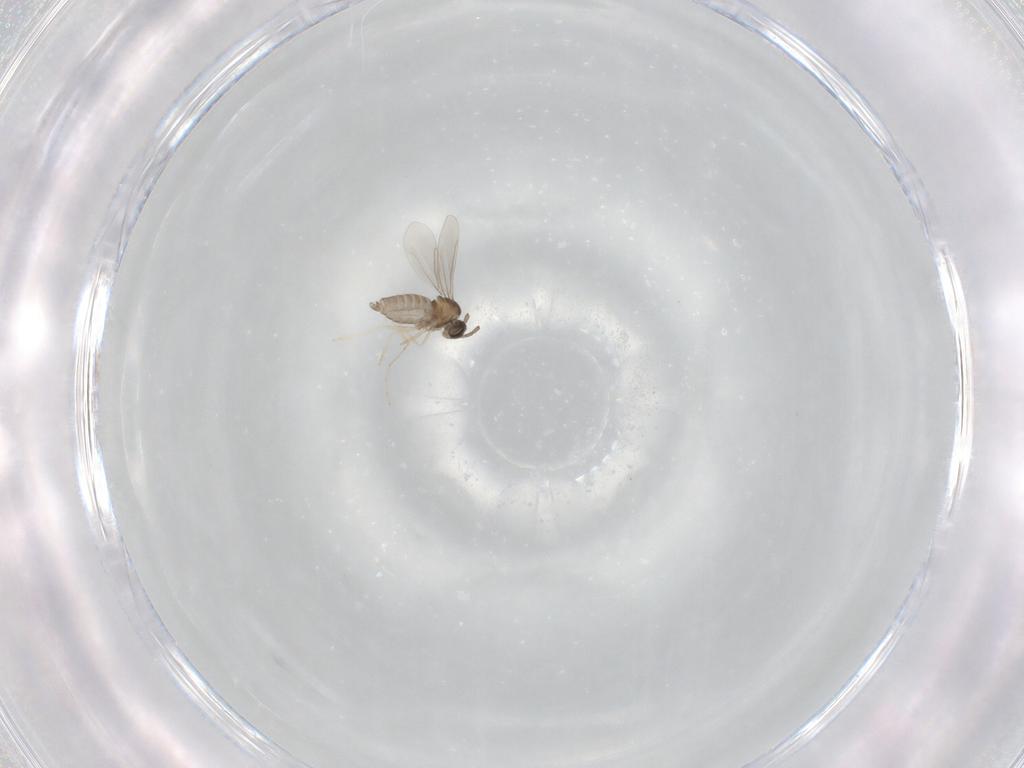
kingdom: Animalia
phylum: Arthropoda
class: Insecta
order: Diptera
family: Cecidomyiidae
